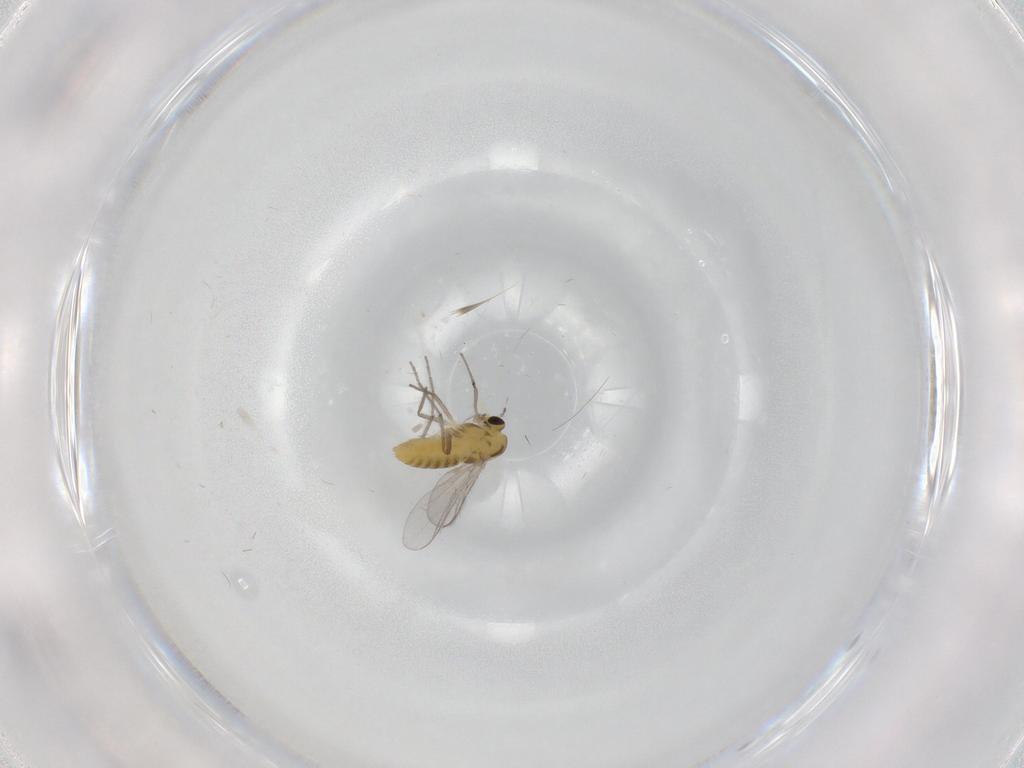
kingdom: Animalia
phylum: Arthropoda
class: Insecta
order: Diptera
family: Chironomidae
